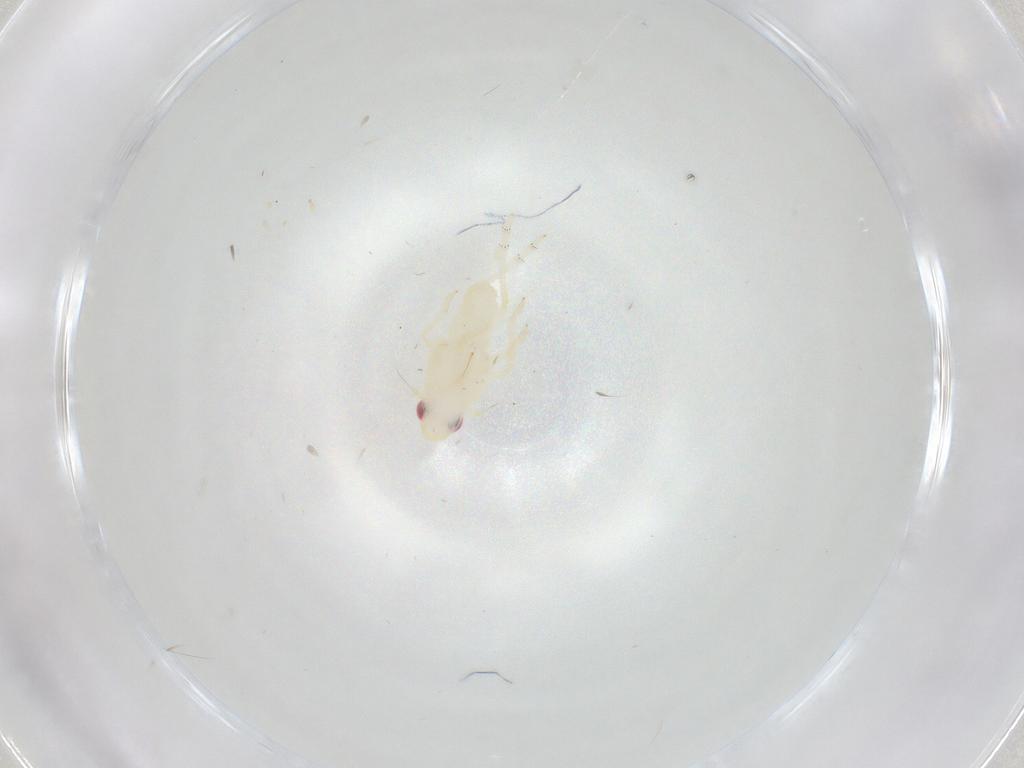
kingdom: Animalia
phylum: Arthropoda
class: Insecta
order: Hemiptera
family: Tropiduchidae
